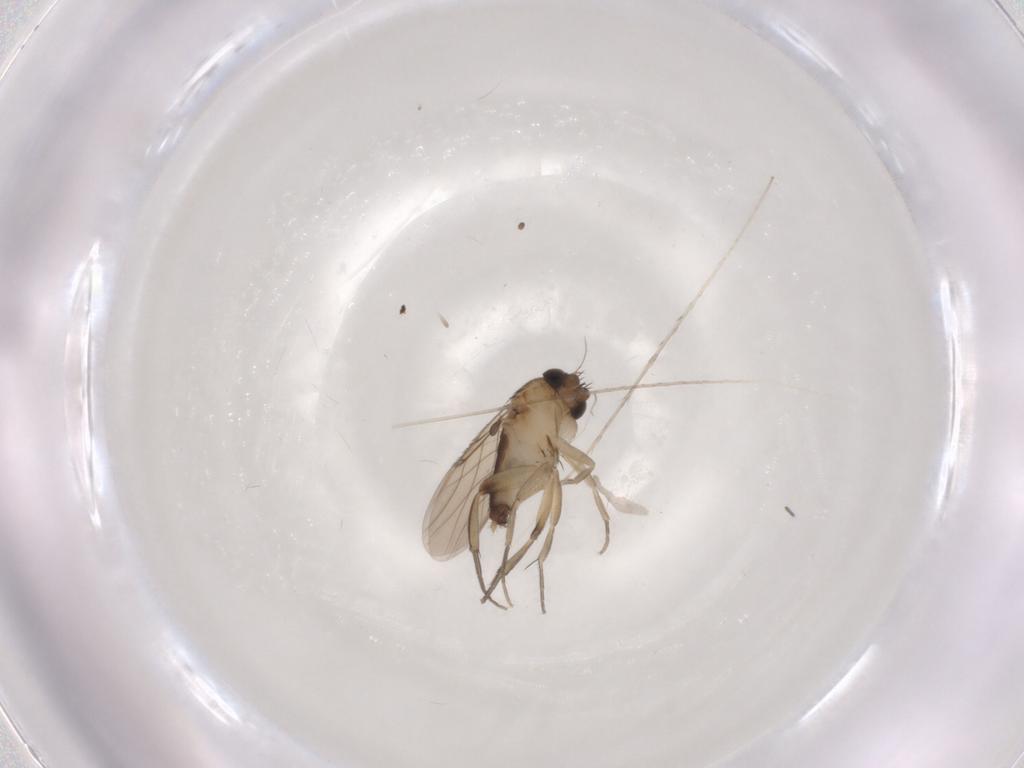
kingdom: Animalia
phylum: Arthropoda
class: Insecta
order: Diptera
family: Phoridae
